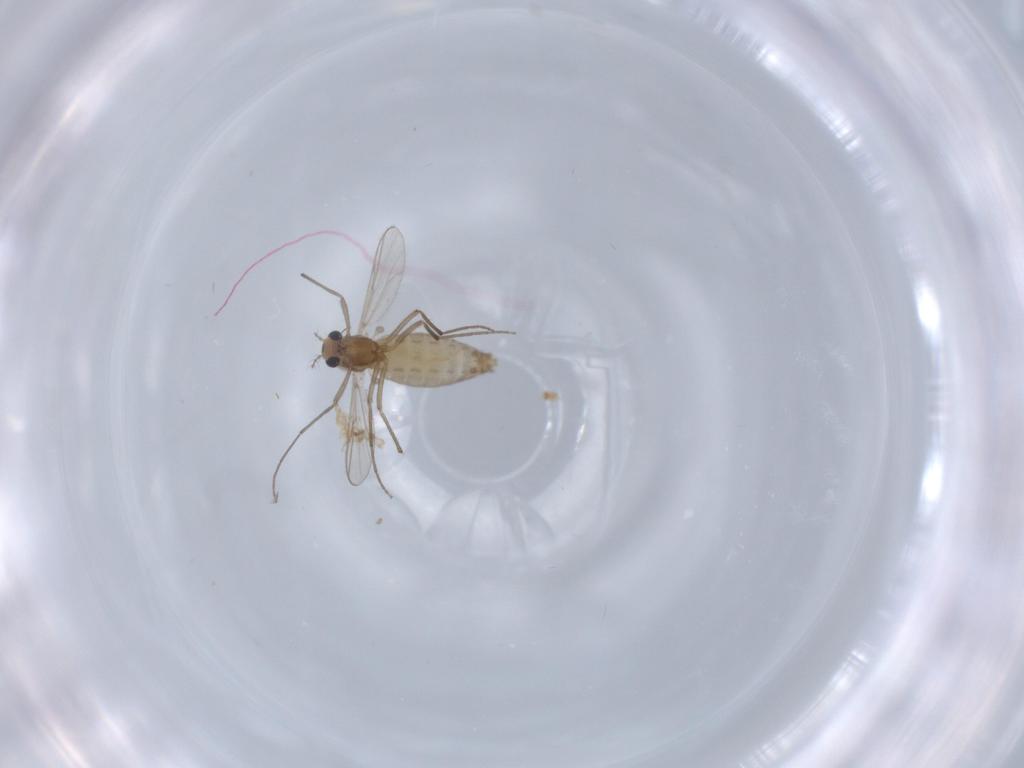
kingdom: Animalia
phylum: Arthropoda
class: Insecta
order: Diptera
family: Chironomidae
